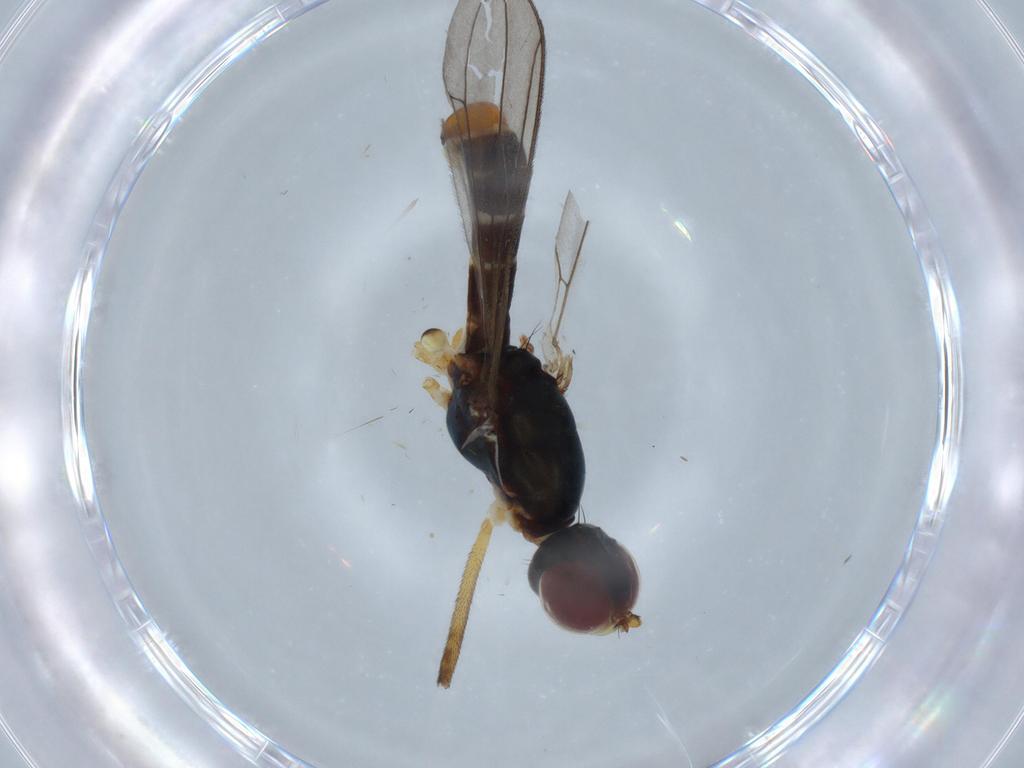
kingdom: Animalia
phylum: Arthropoda
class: Insecta
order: Diptera
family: Micropezidae
